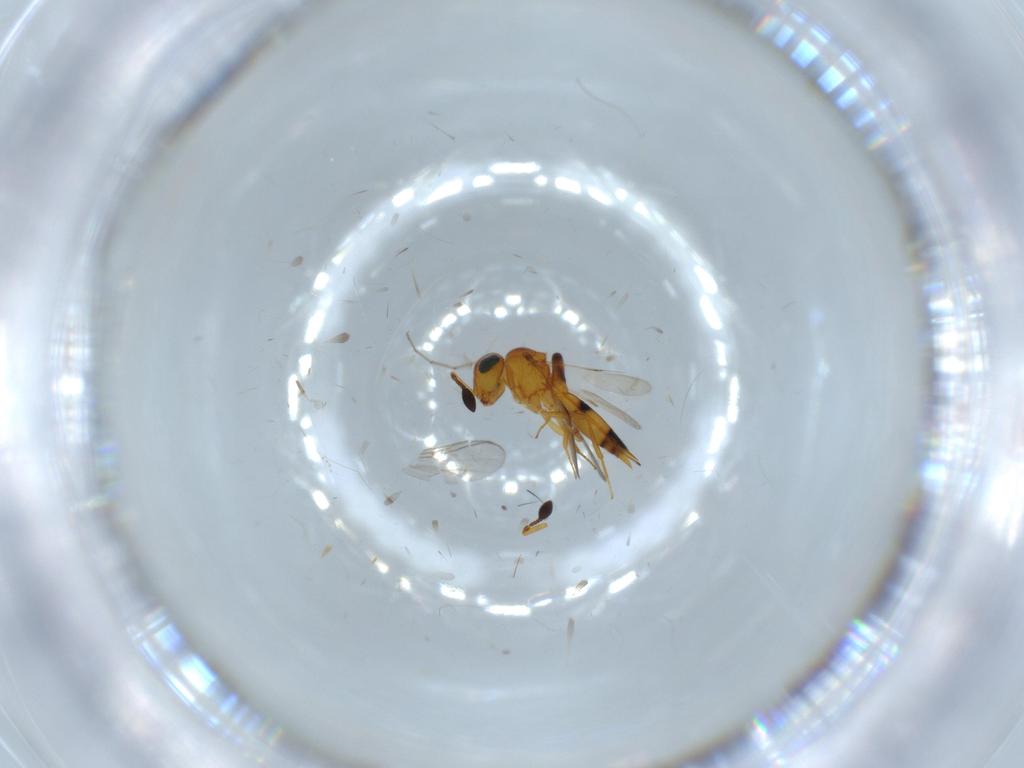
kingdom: Animalia
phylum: Arthropoda
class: Insecta
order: Hymenoptera
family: Scelionidae
